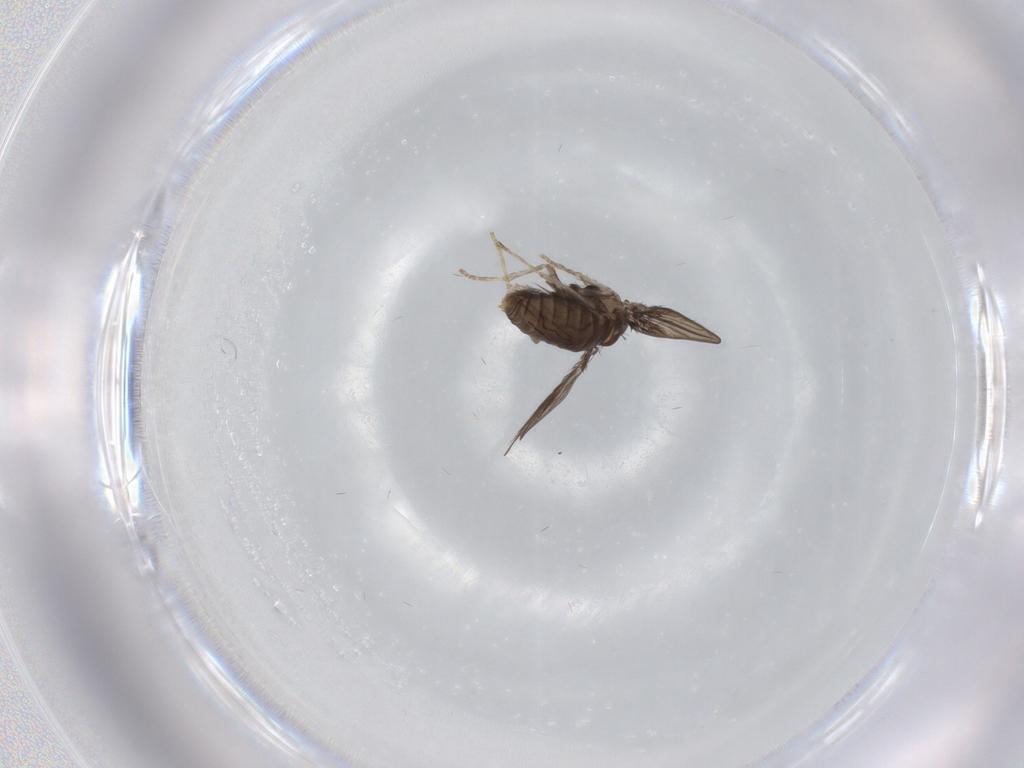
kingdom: Animalia
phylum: Arthropoda
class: Insecta
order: Diptera
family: Psychodidae
